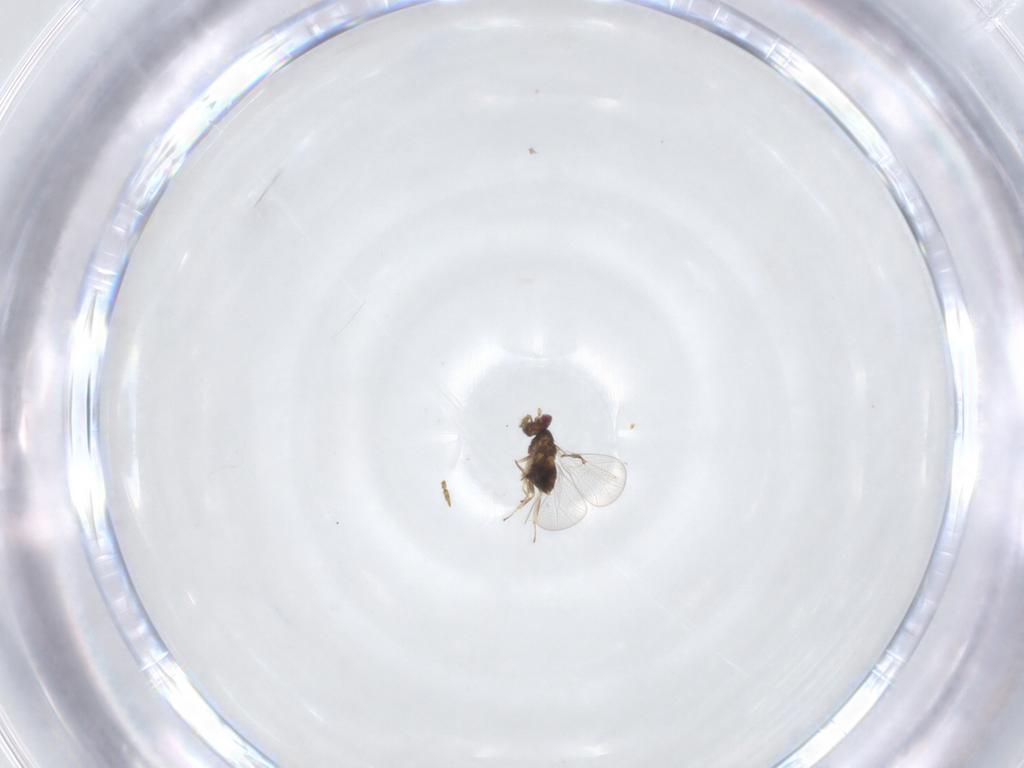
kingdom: Animalia
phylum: Arthropoda
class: Insecta
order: Hymenoptera
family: Trichogrammatidae
